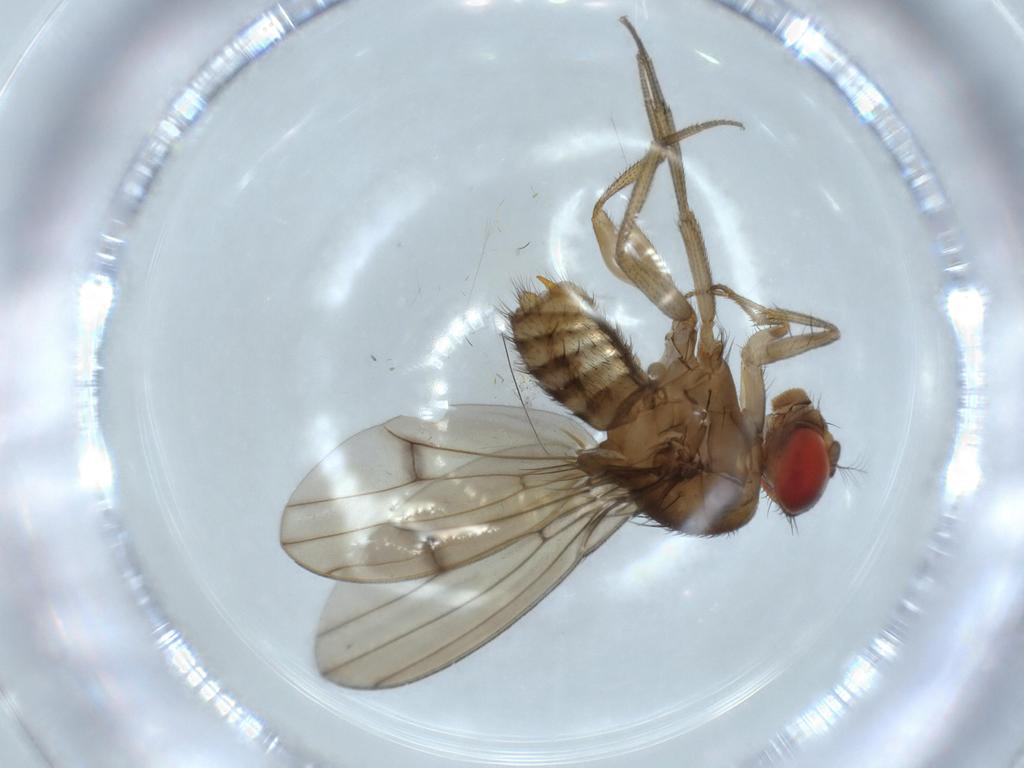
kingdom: Animalia
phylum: Arthropoda
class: Insecta
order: Diptera
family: Drosophilidae
